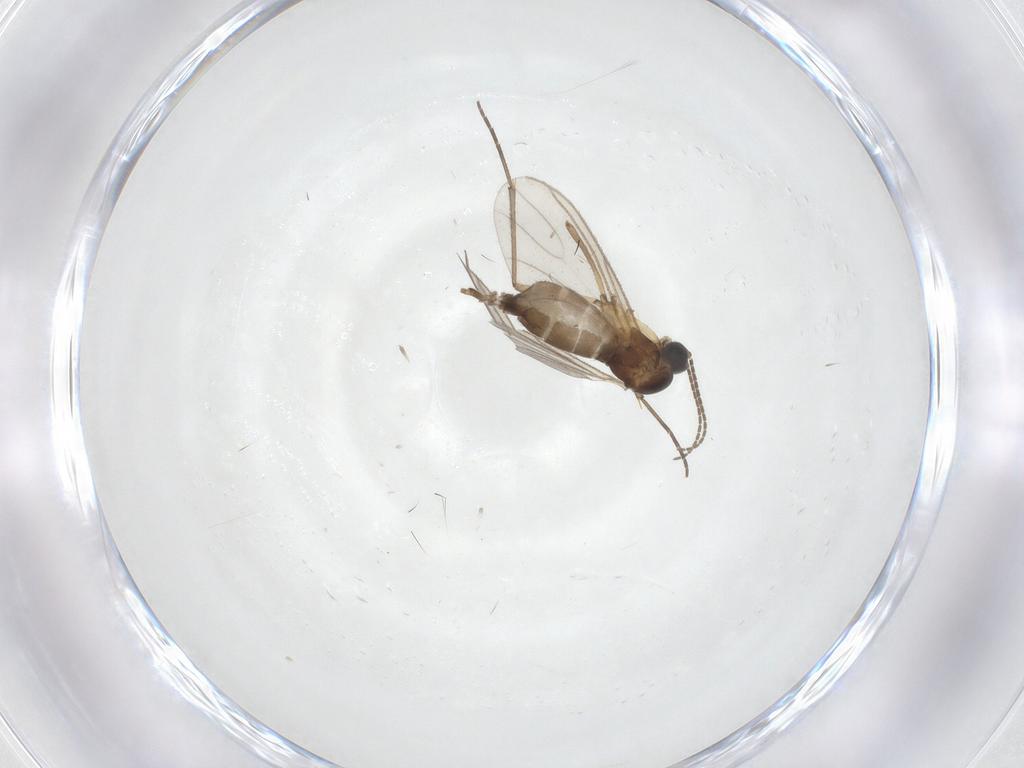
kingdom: Animalia
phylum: Arthropoda
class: Insecta
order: Diptera
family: Sciaridae
